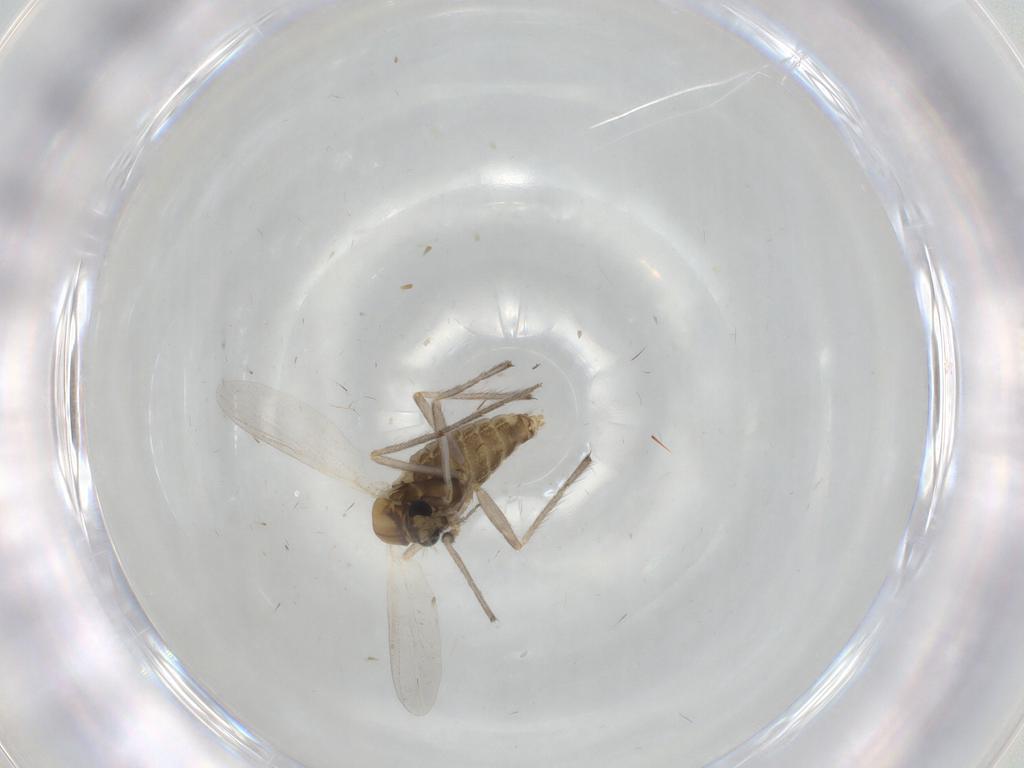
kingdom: Animalia
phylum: Arthropoda
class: Insecta
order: Diptera
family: Chironomidae
